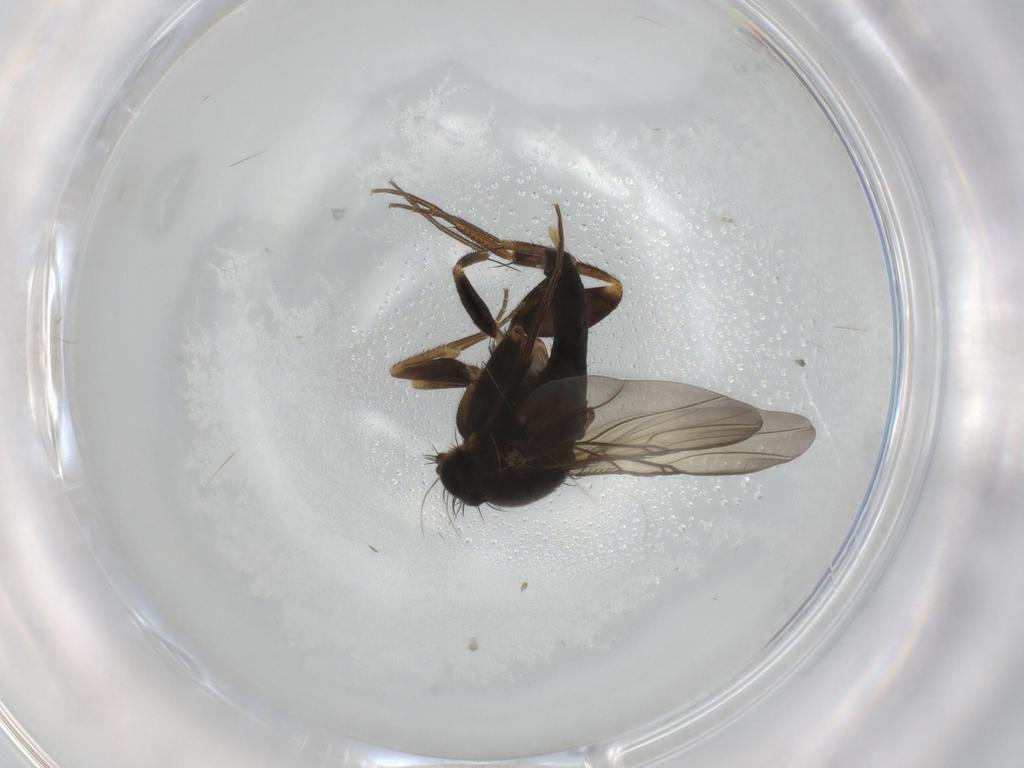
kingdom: Animalia
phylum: Arthropoda
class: Insecta
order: Diptera
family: Phoridae
